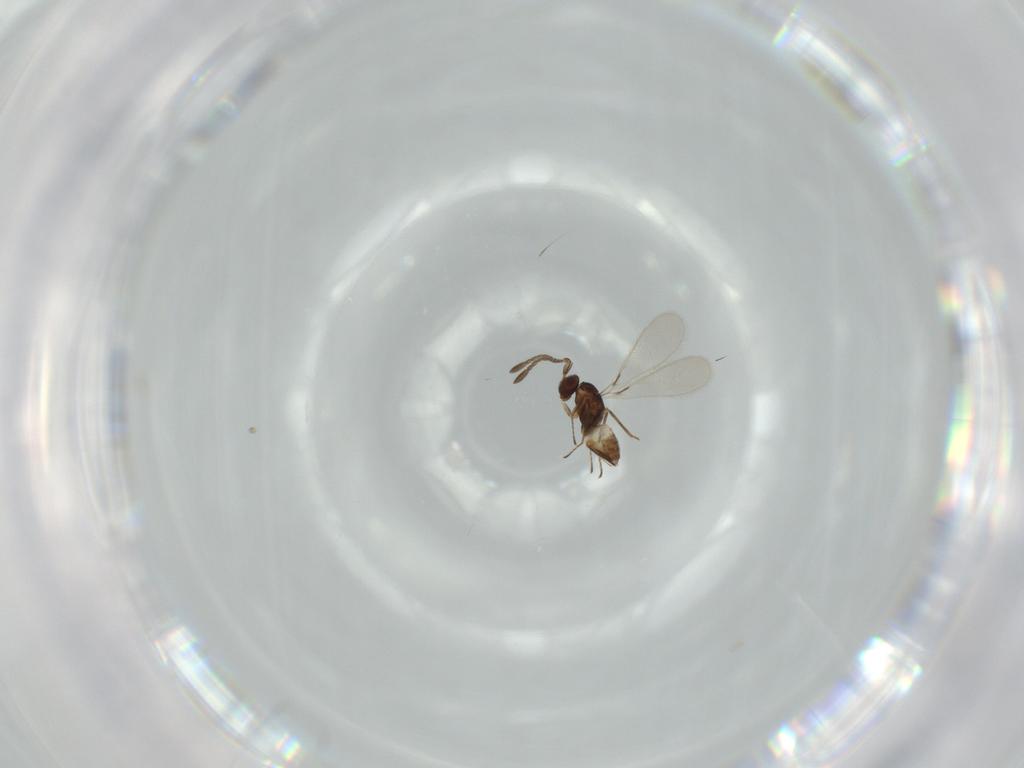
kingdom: Animalia
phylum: Arthropoda
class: Insecta
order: Hymenoptera
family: Mymaridae
